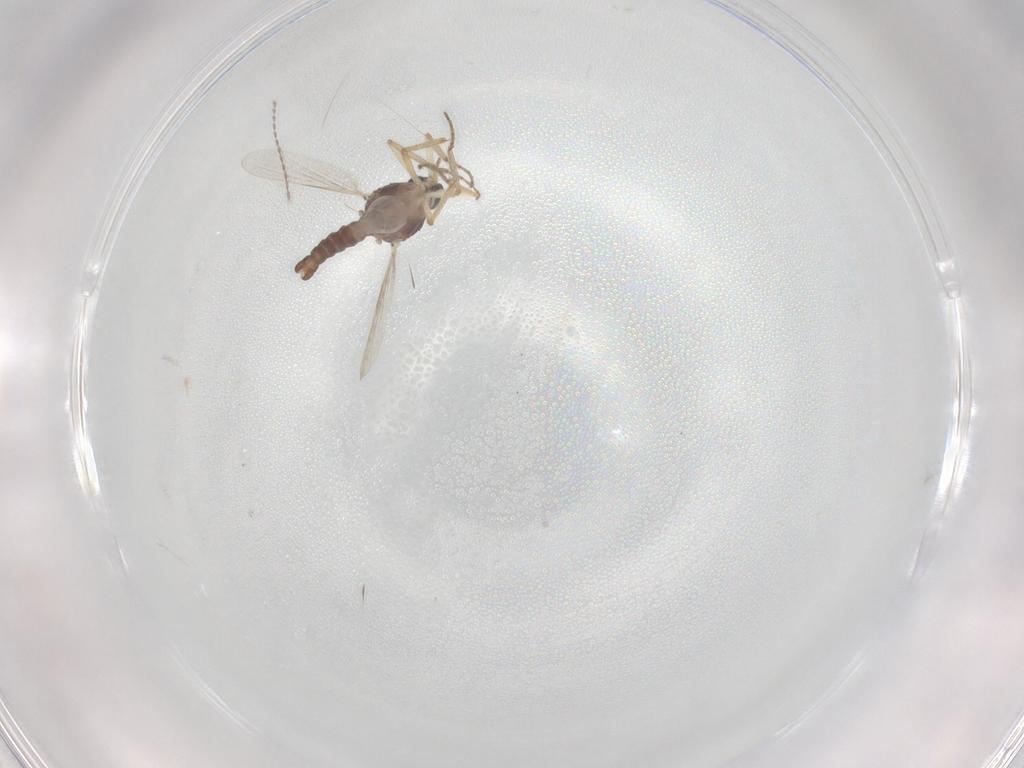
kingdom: Animalia
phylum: Arthropoda
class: Insecta
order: Diptera
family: Ceratopogonidae
